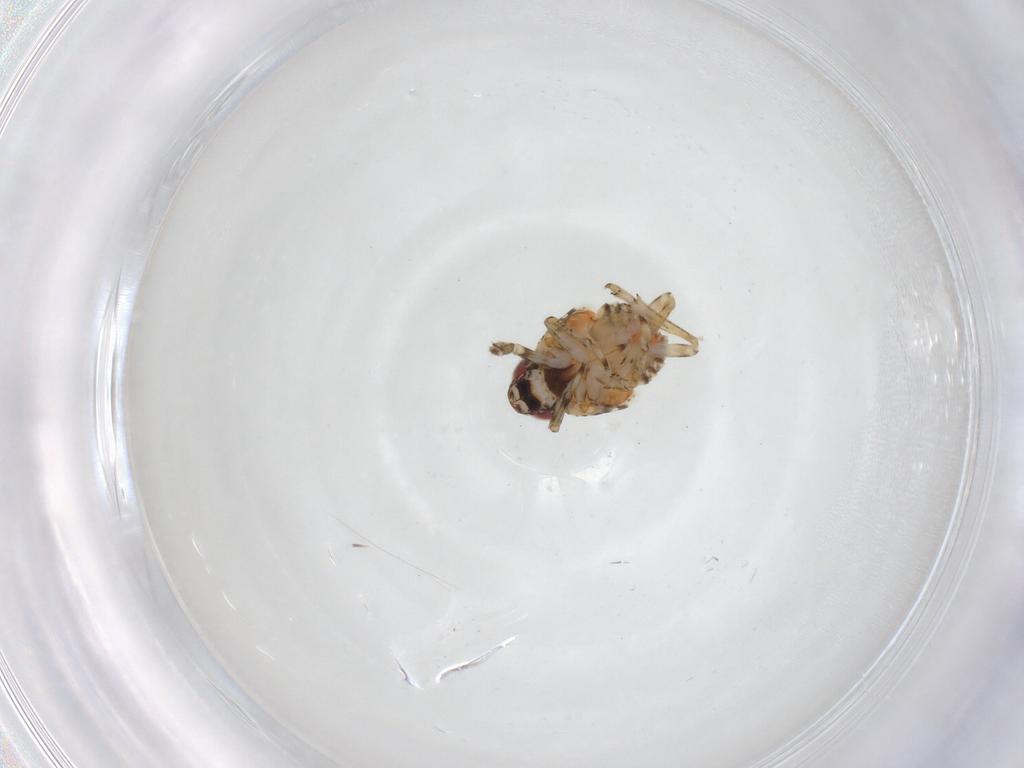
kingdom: Animalia
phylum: Arthropoda
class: Insecta
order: Hemiptera
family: Issidae
